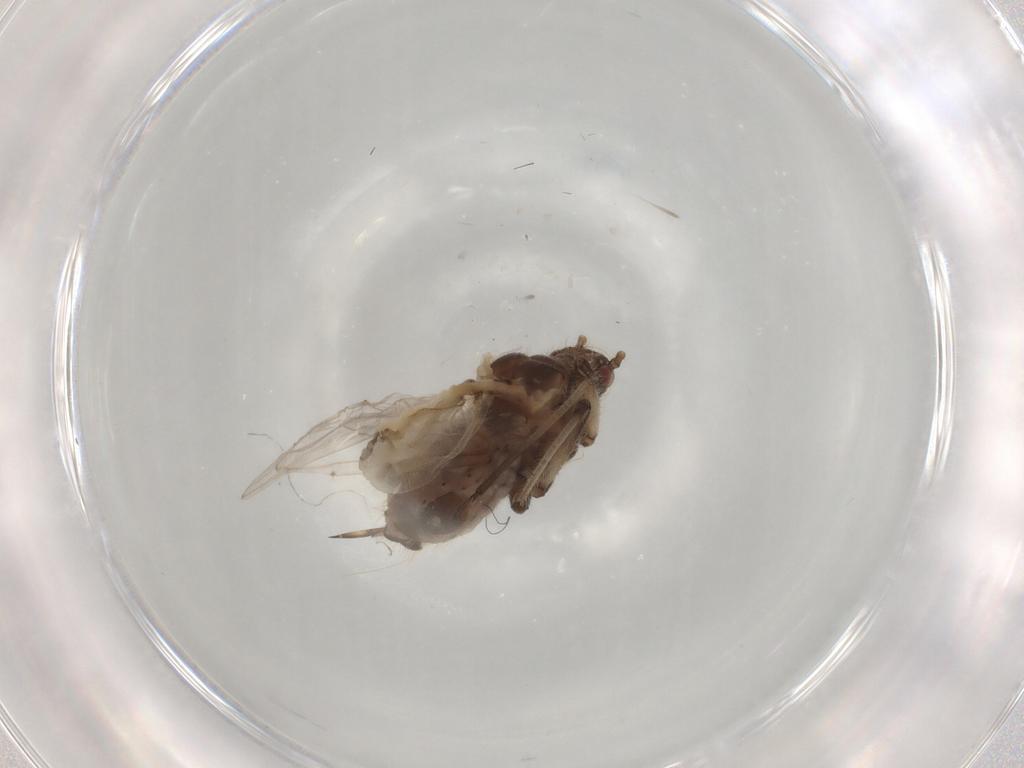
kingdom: Animalia
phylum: Arthropoda
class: Insecta
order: Hemiptera
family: Aphididae
